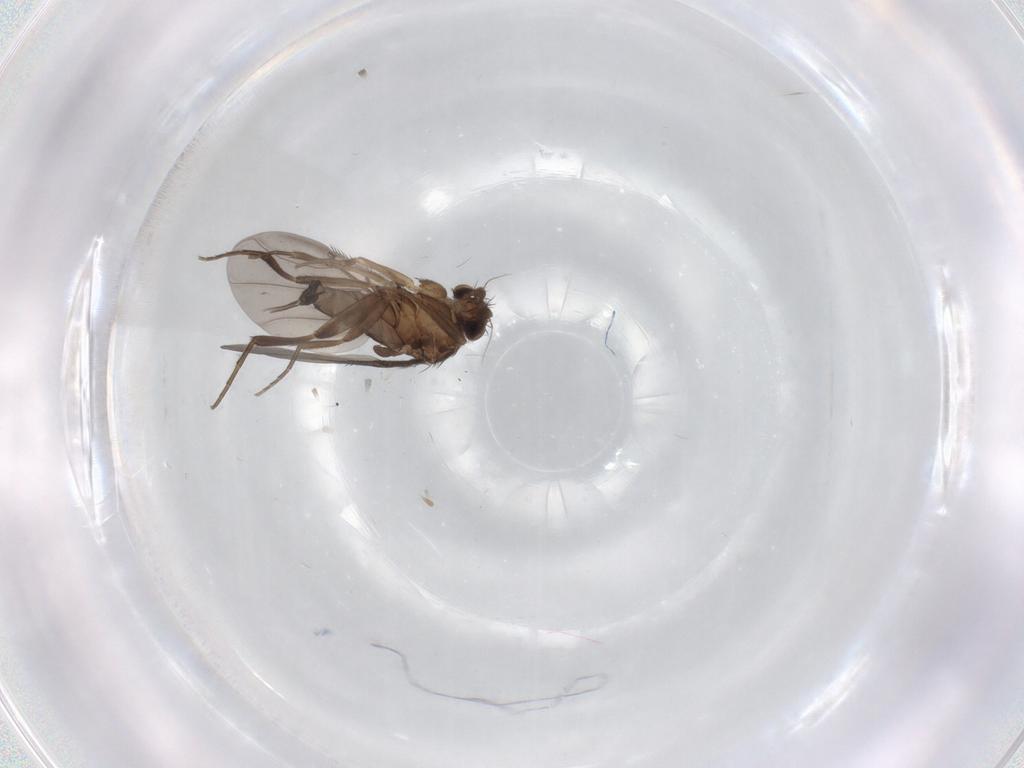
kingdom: Animalia
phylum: Arthropoda
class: Insecta
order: Diptera
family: Phoridae
